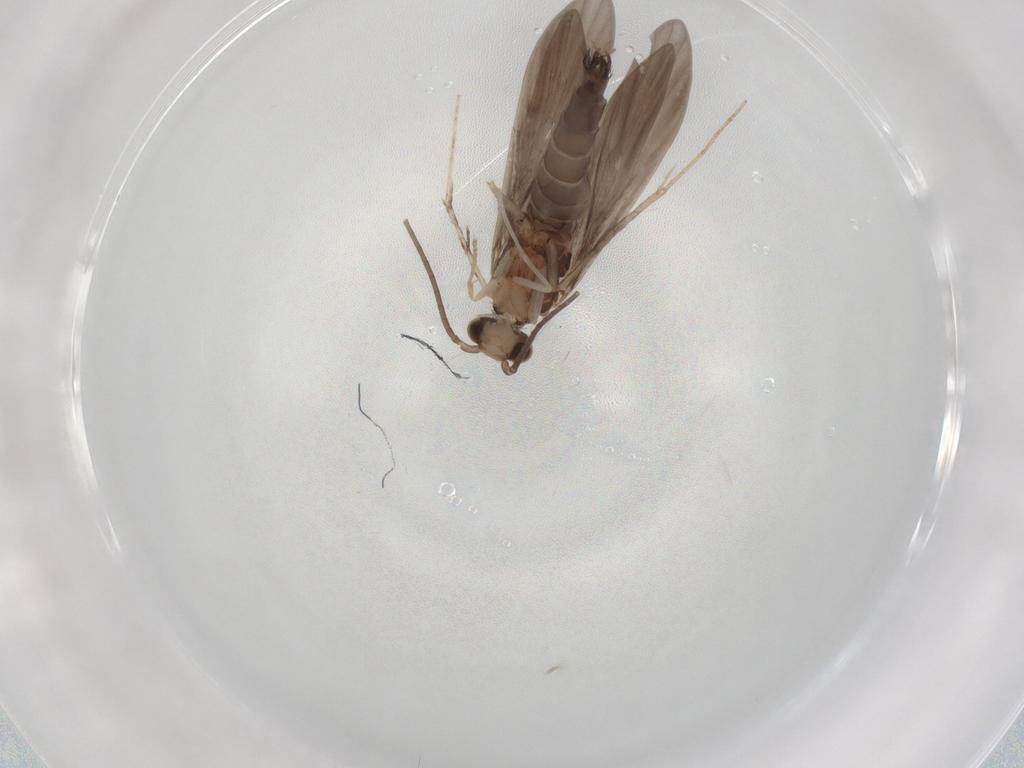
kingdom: Animalia
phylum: Arthropoda
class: Insecta
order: Trichoptera
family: Xiphocentronidae
